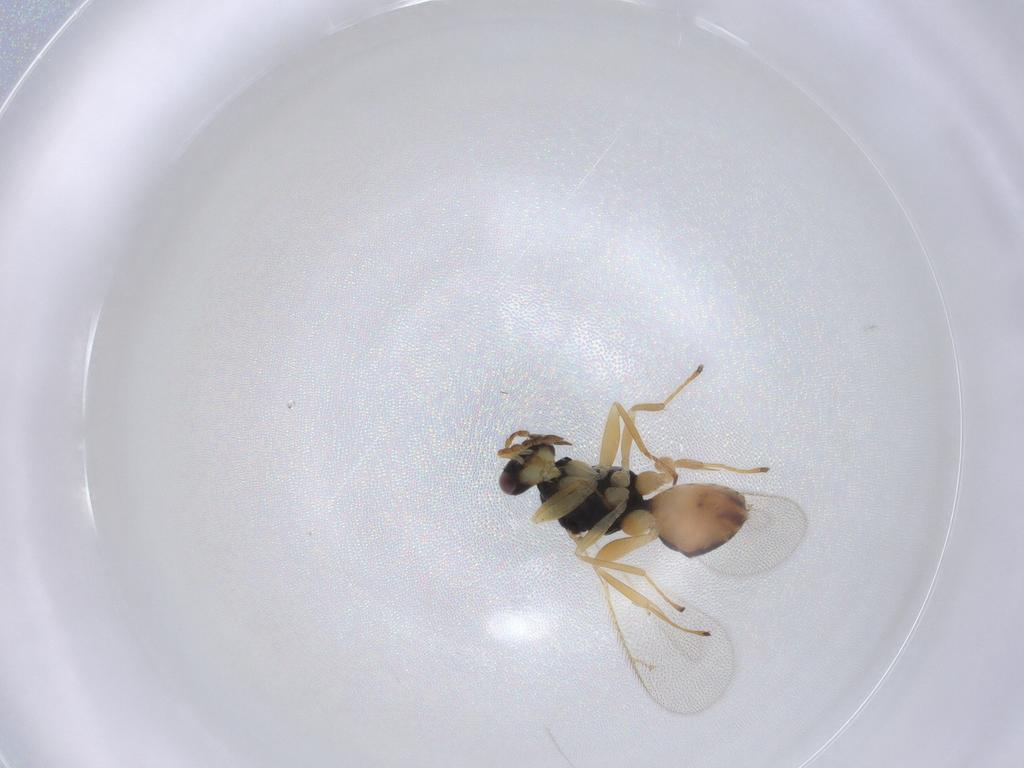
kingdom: Animalia
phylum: Arthropoda
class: Insecta
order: Hymenoptera
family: Eulophidae
